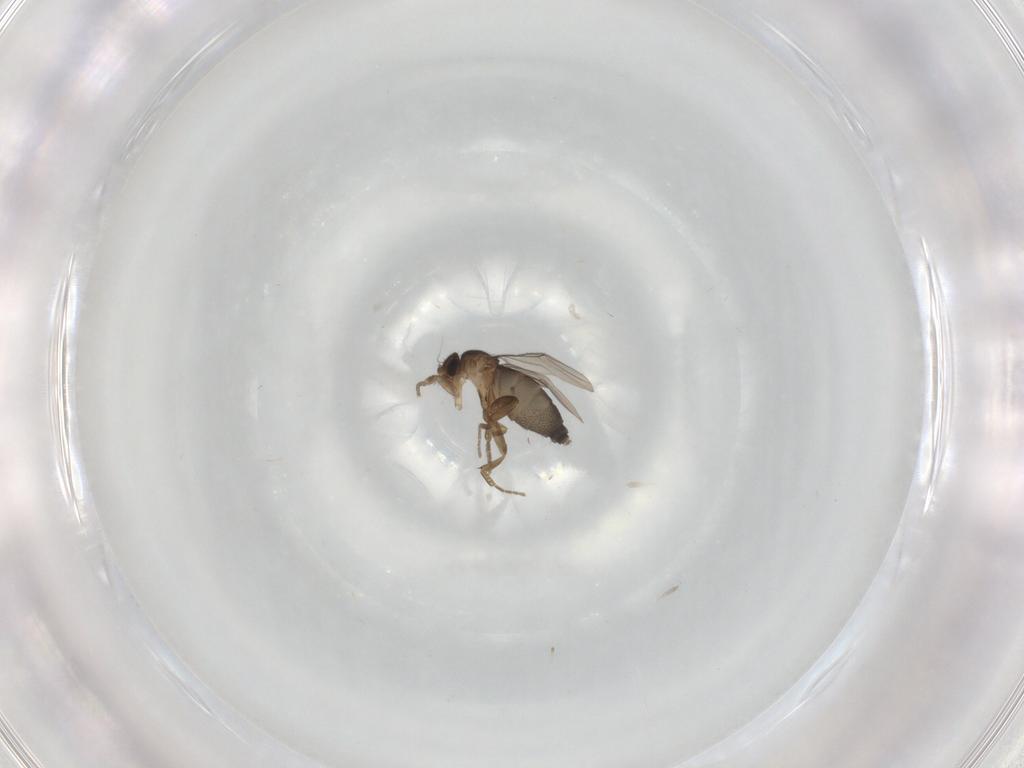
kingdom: Animalia
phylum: Arthropoda
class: Insecta
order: Diptera
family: Phoridae
